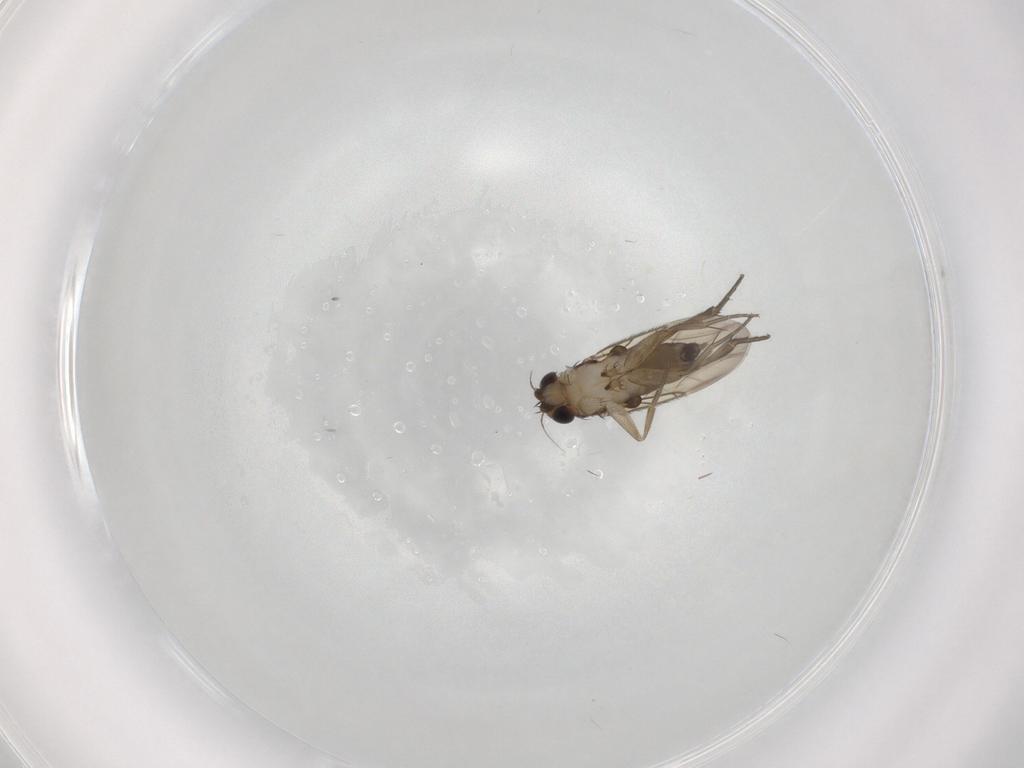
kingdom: Animalia
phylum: Arthropoda
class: Insecta
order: Diptera
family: Phoridae
